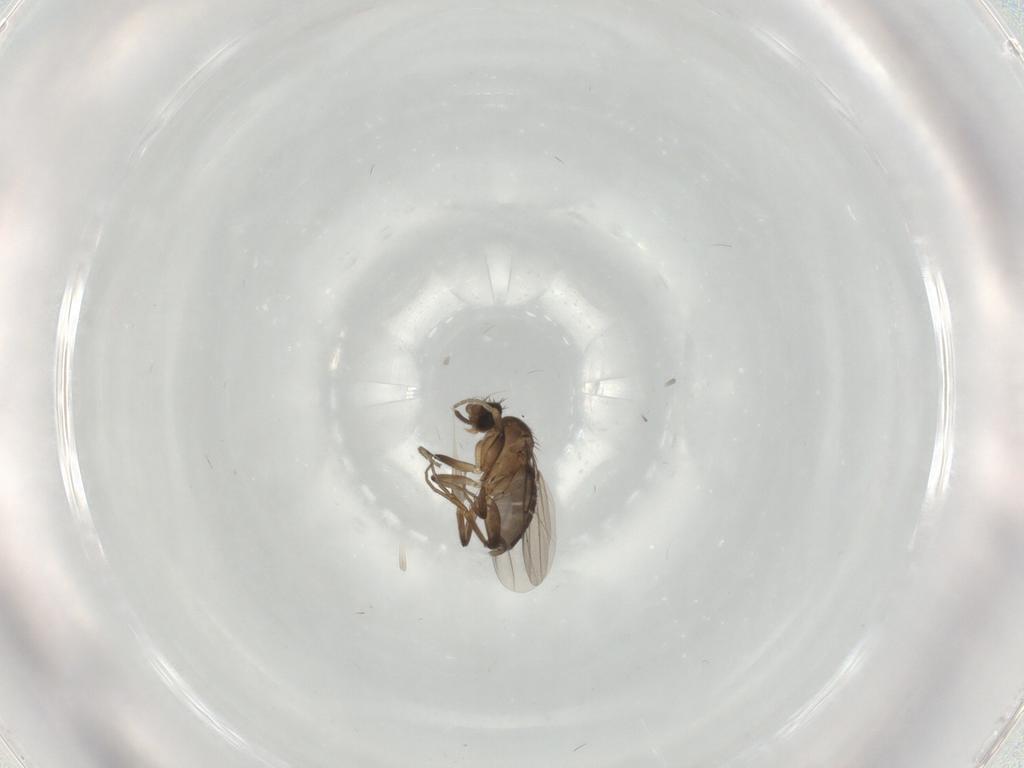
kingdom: Animalia
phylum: Arthropoda
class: Insecta
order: Diptera
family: Phoridae
